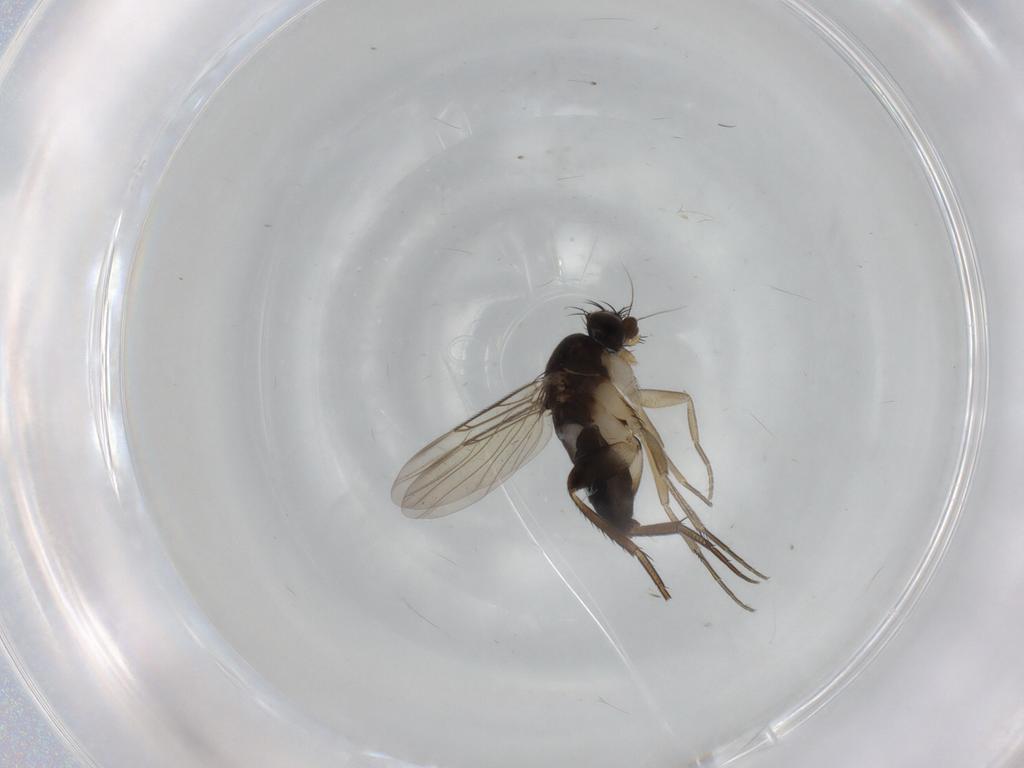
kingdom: Animalia
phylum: Arthropoda
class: Insecta
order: Diptera
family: Phoridae
